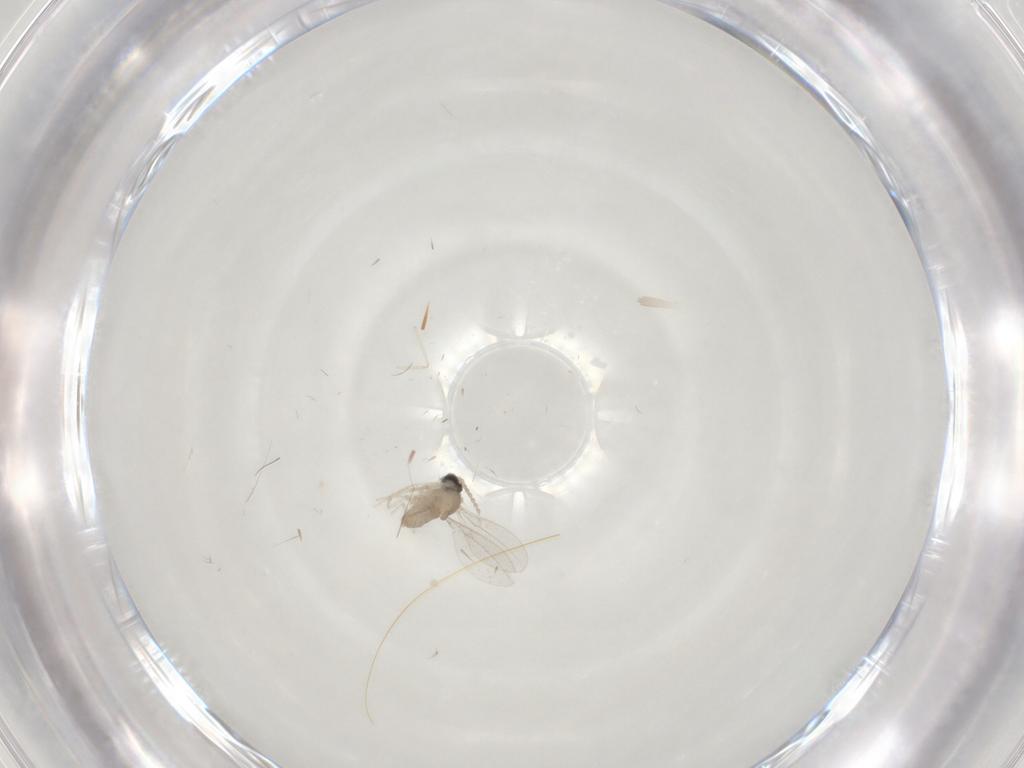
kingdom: Animalia
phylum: Arthropoda
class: Insecta
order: Diptera
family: Cecidomyiidae
